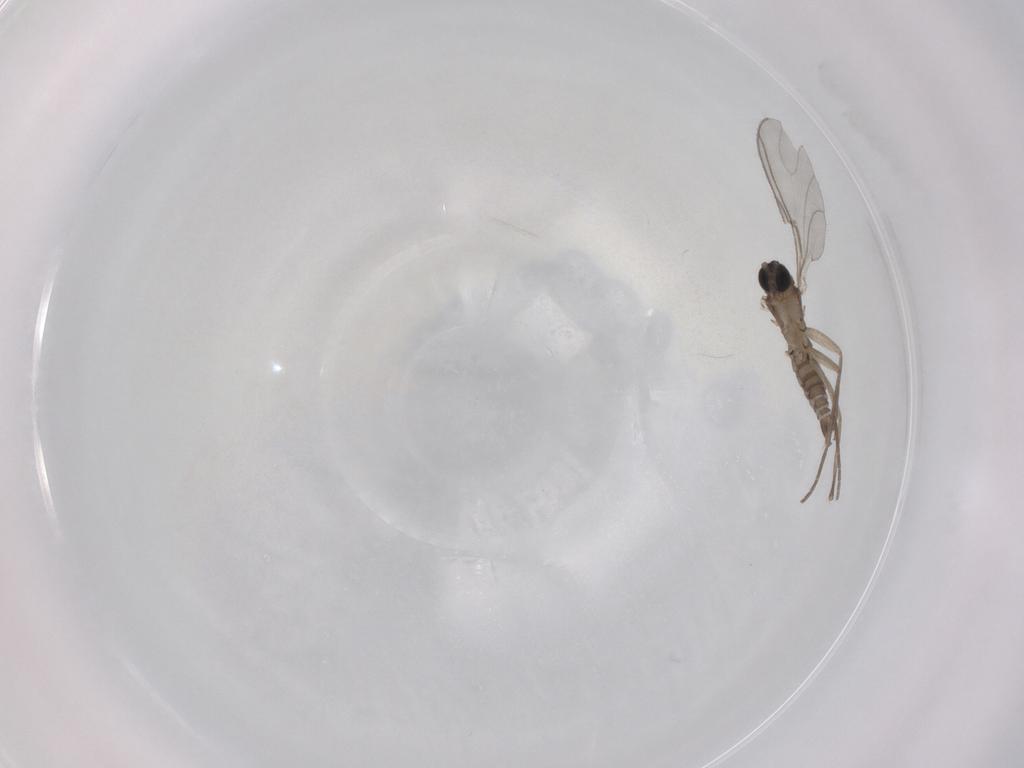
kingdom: Animalia
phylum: Arthropoda
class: Insecta
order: Diptera
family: Sciaridae
